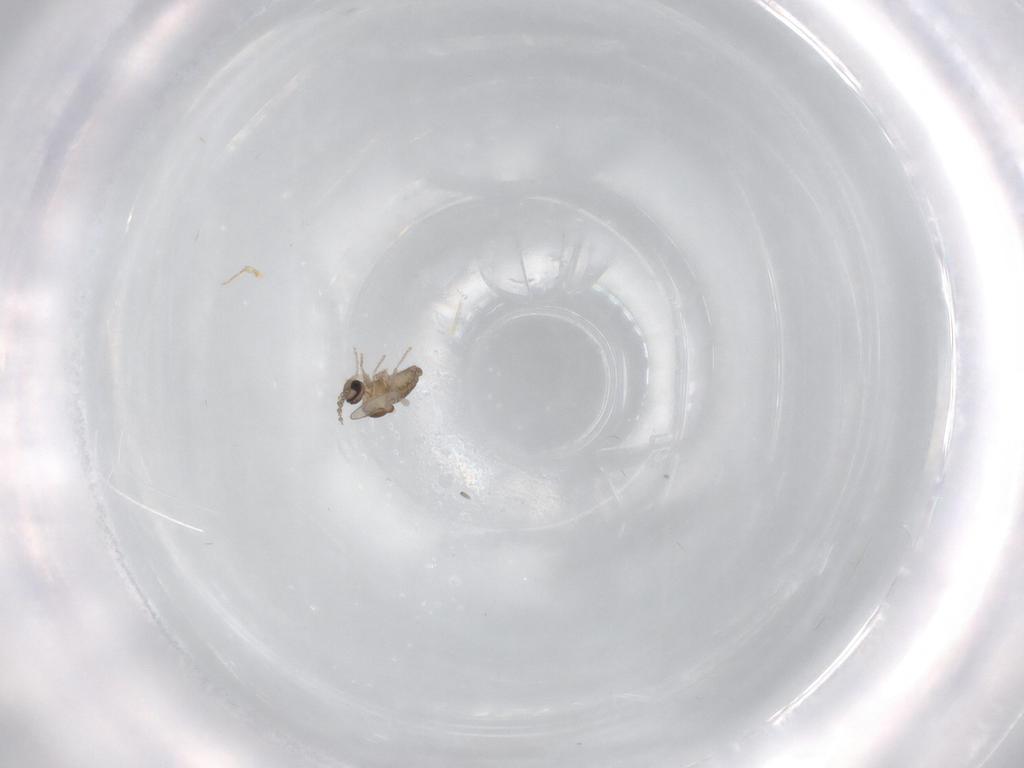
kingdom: Animalia
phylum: Arthropoda
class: Insecta
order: Diptera
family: Cecidomyiidae
